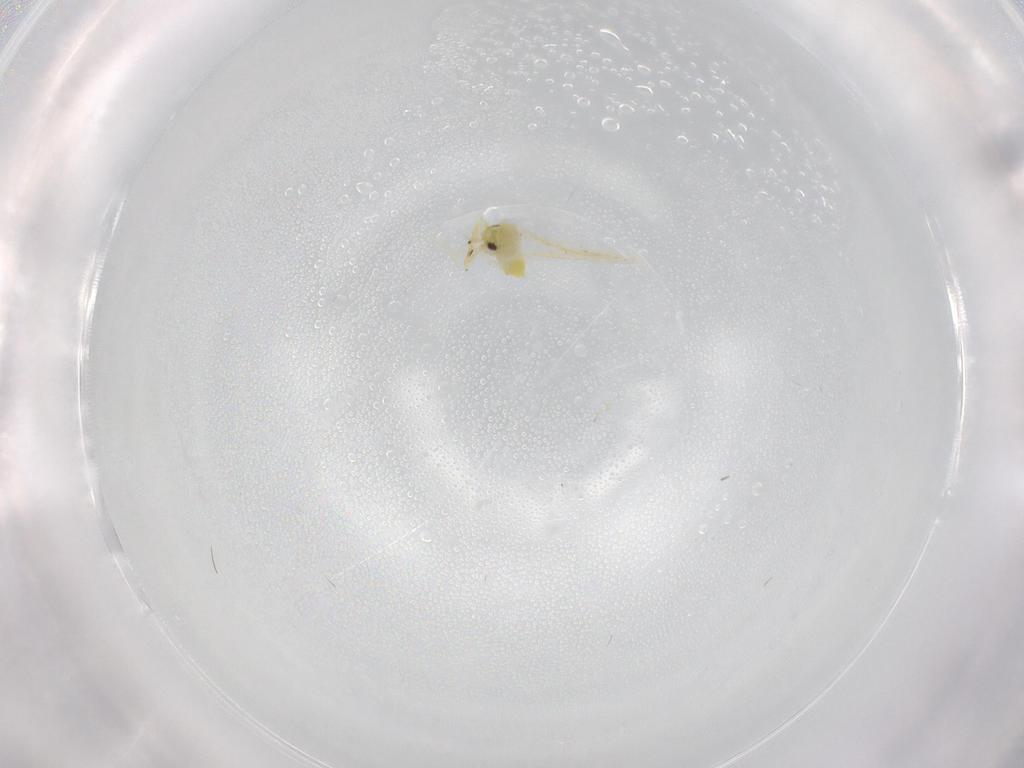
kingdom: Animalia
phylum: Arthropoda
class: Insecta
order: Hemiptera
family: Aleyrodidae
